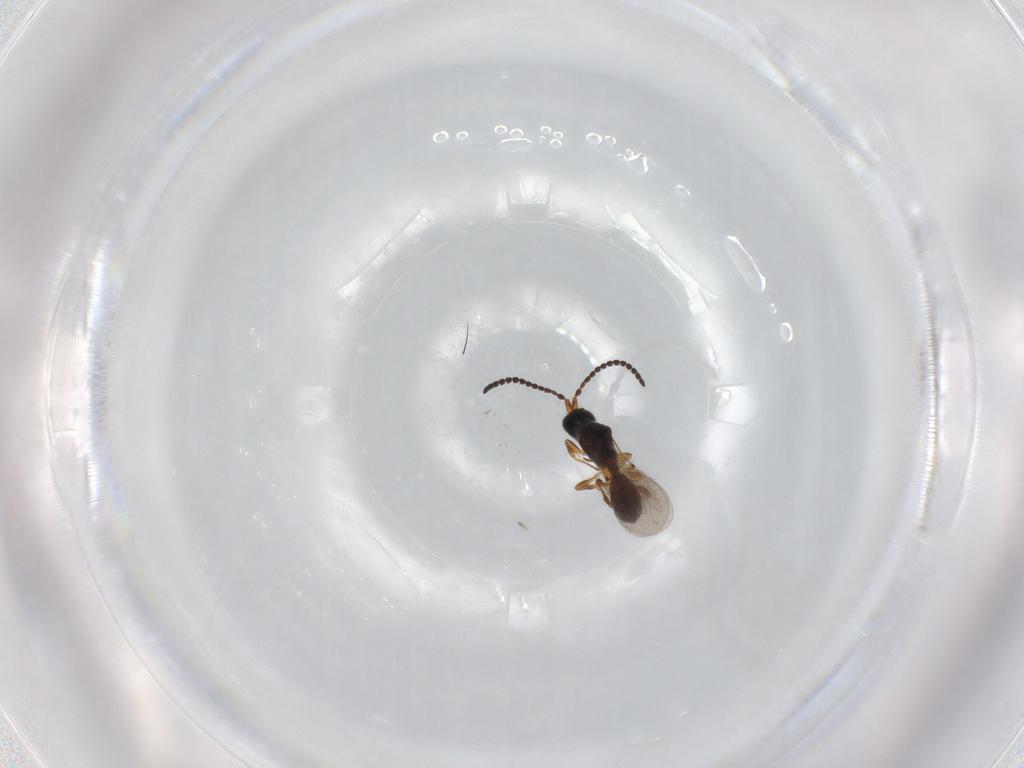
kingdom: Animalia
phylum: Arthropoda
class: Insecta
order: Hymenoptera
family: Diapriidae
